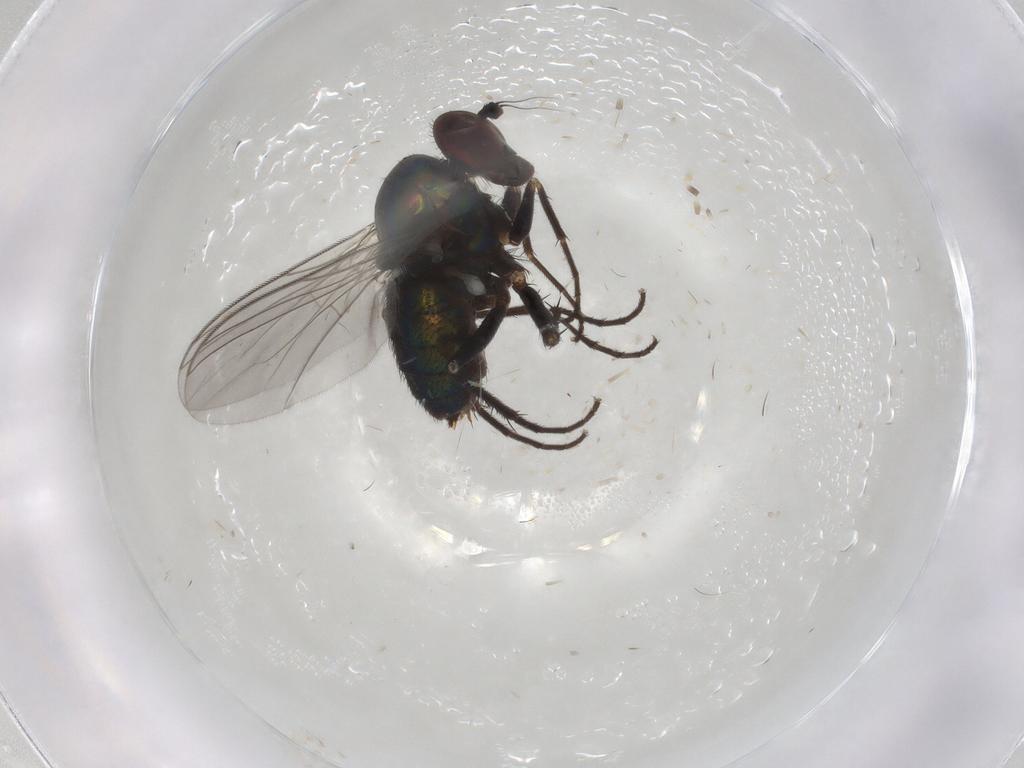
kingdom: Animalia
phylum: Arthropoda
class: Insecta
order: Diptera
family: Dolichopodidae
